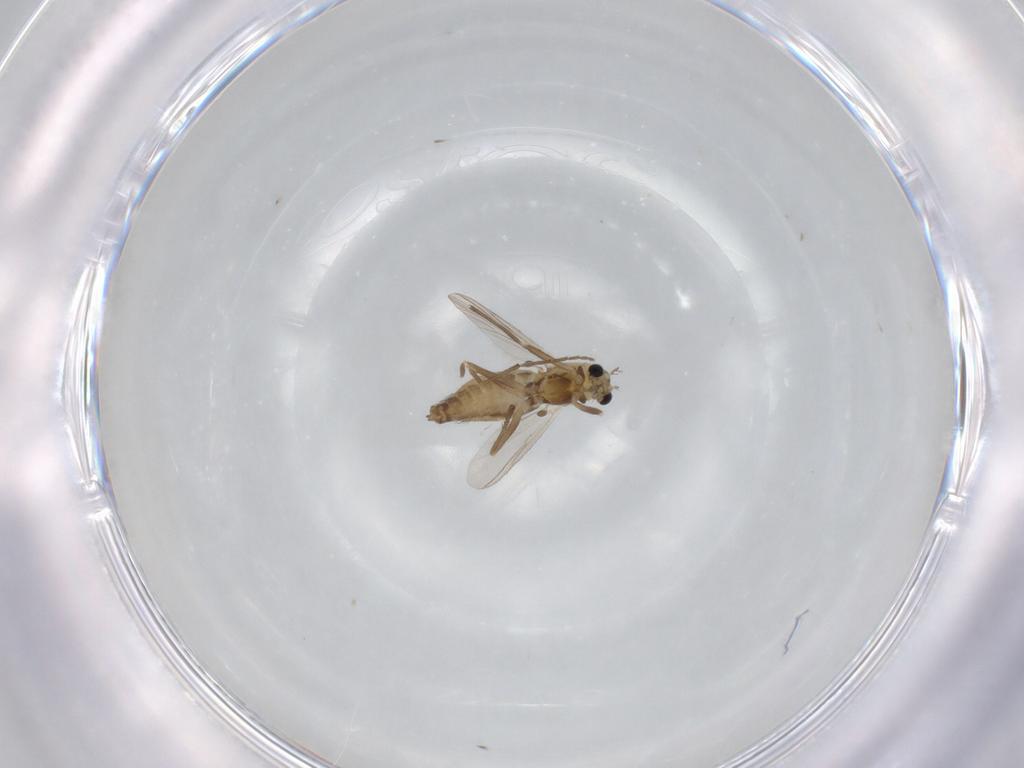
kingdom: Animalia
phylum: Arthropoda
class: Insecta
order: Diptera
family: Chironomidae
